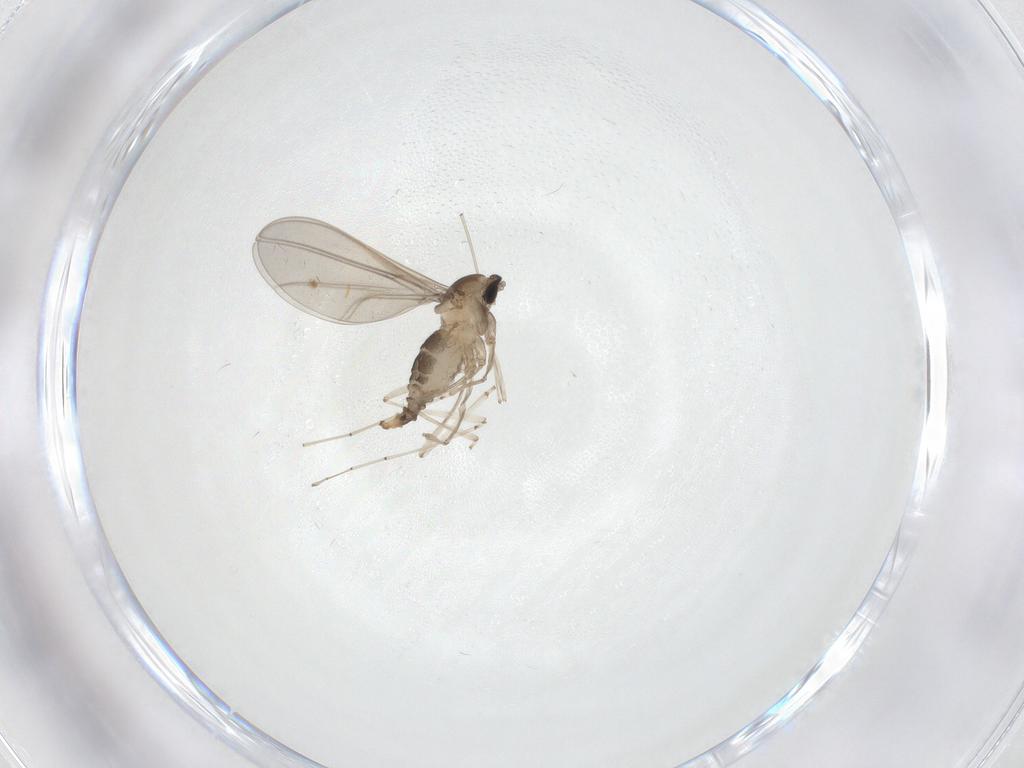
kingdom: Animalia
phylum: Arthropoda
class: Insecta
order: Diptera
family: Cecidomyiidae
